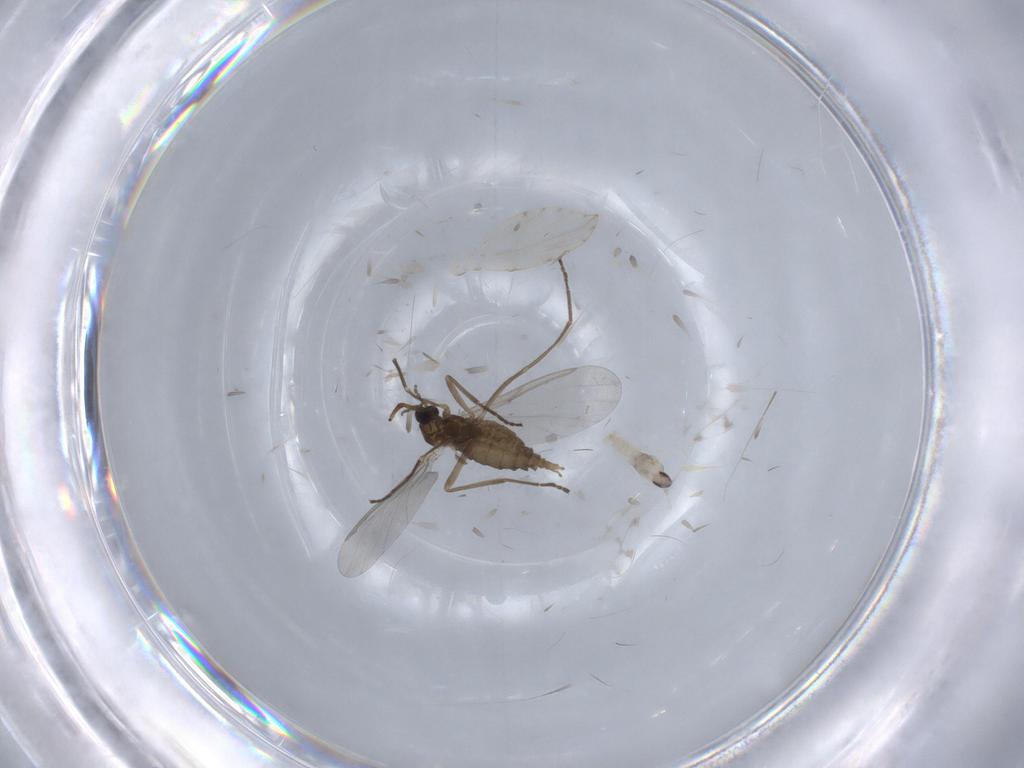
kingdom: Animalia
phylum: Arthropoda
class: Insecta
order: Diptera
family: Cecidomyiidae
